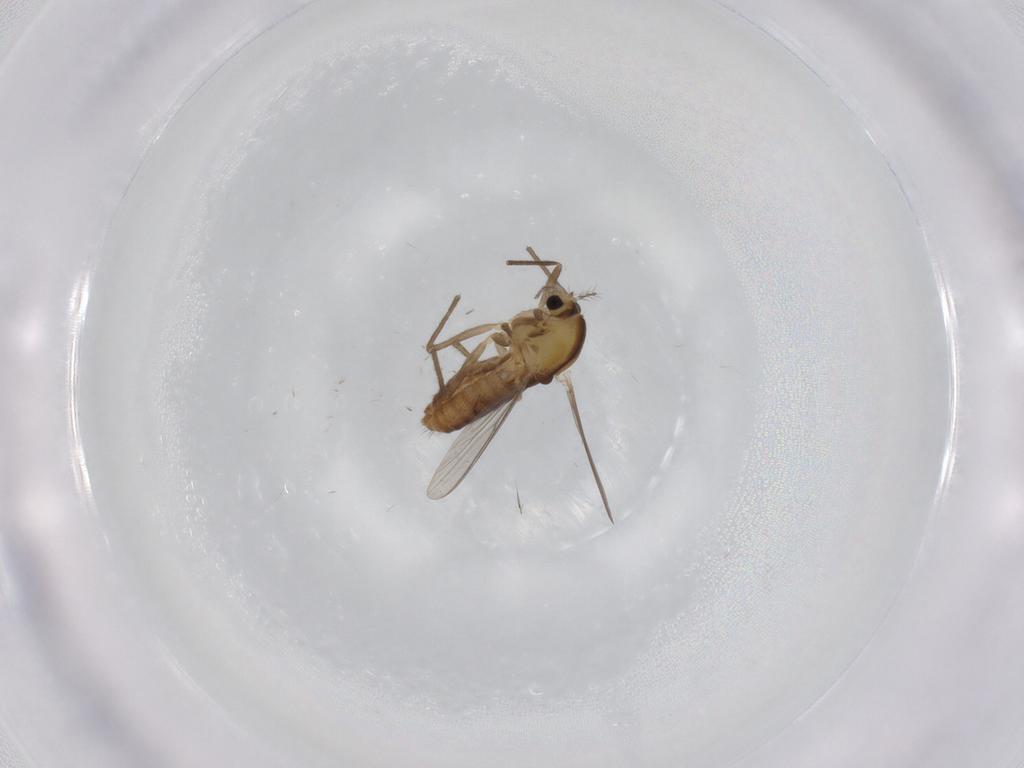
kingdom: Animalia
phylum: Arthropoda
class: Insecta
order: Diptera
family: Chironomidae
